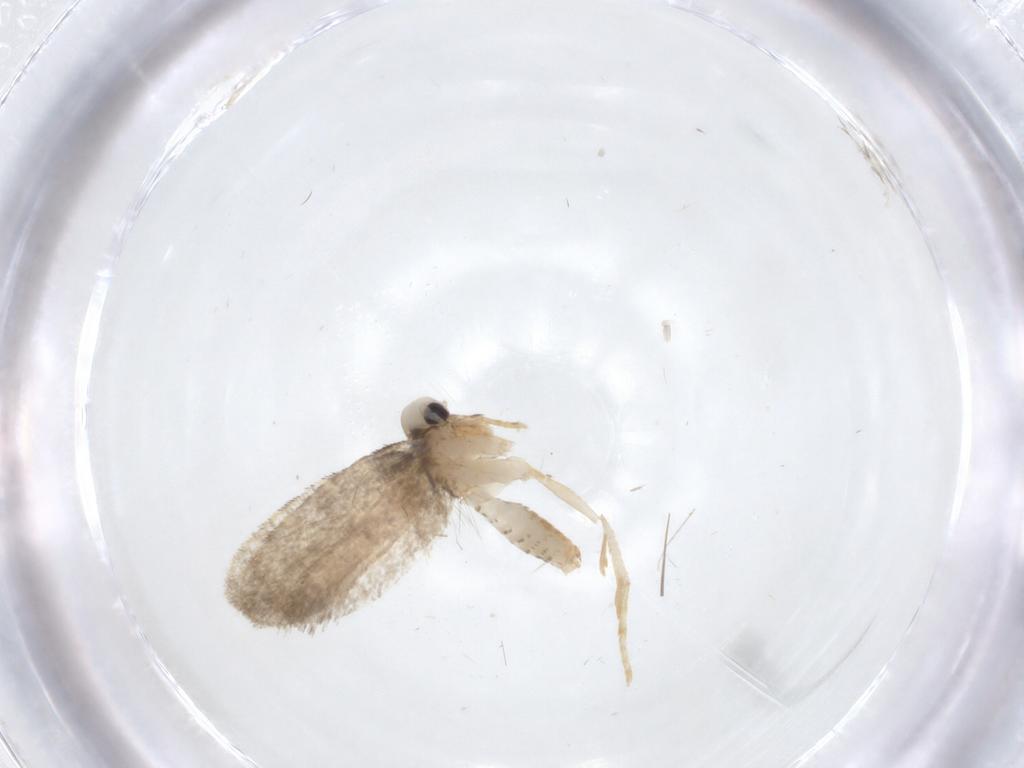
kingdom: Animalia
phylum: Arthropoda
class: Insecta
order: Lepidoptera
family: Psychidae
